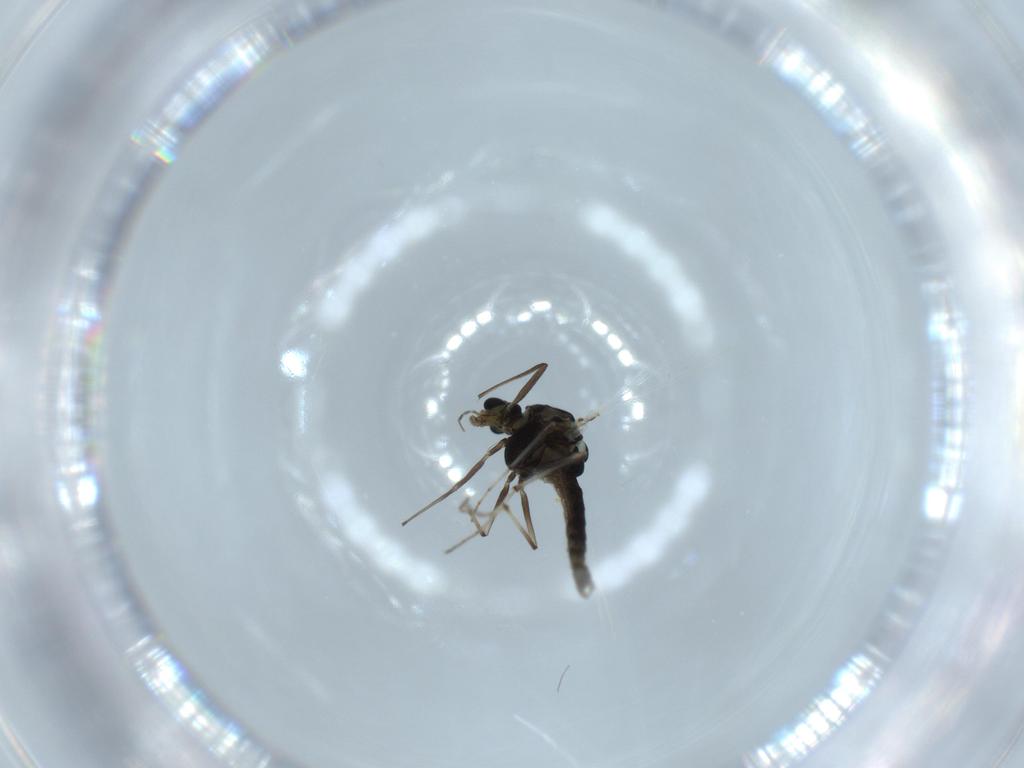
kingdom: Animalia
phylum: Arthropoda
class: Insecta
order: Diptera
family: Chironomidae
